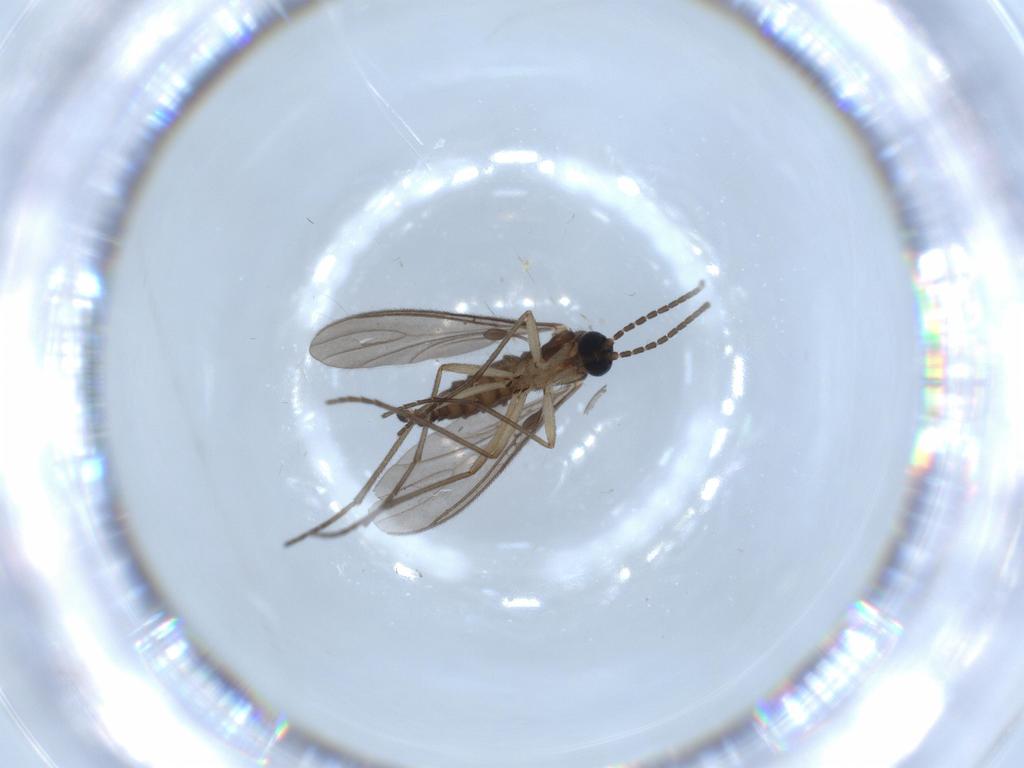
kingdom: Animalia
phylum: Arthropoda
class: Insecta
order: Diptera
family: Sciaridae
